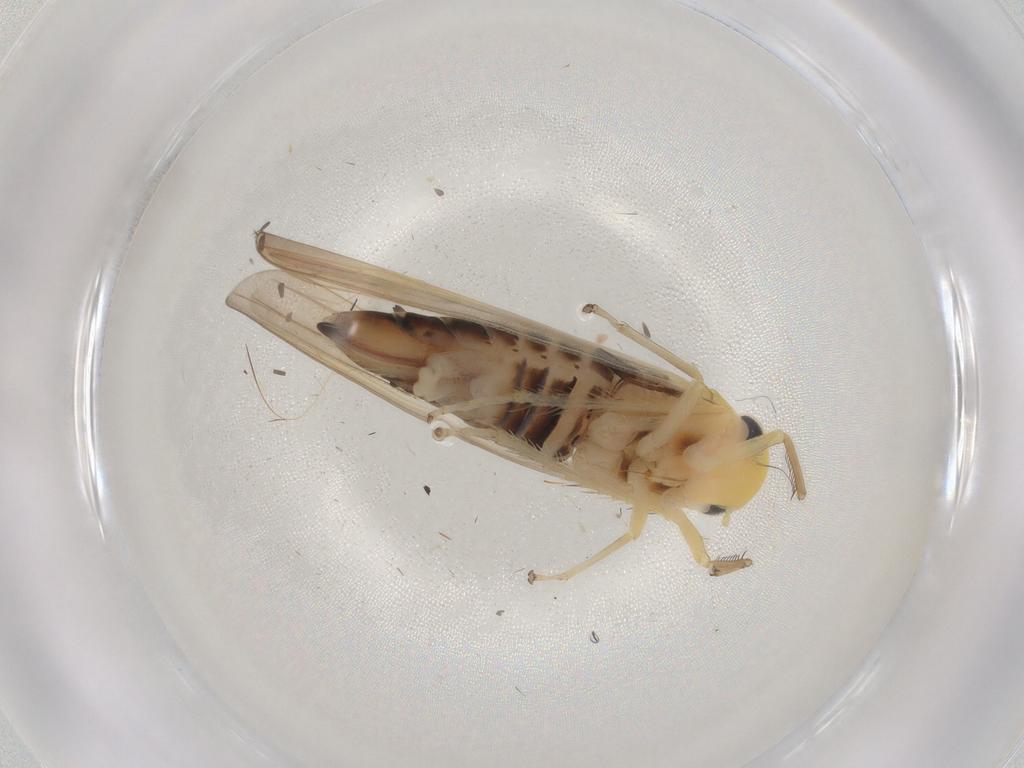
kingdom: Animalia
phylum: Arthropoda
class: Insecta
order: Hemiptera
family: Cicadellidae
